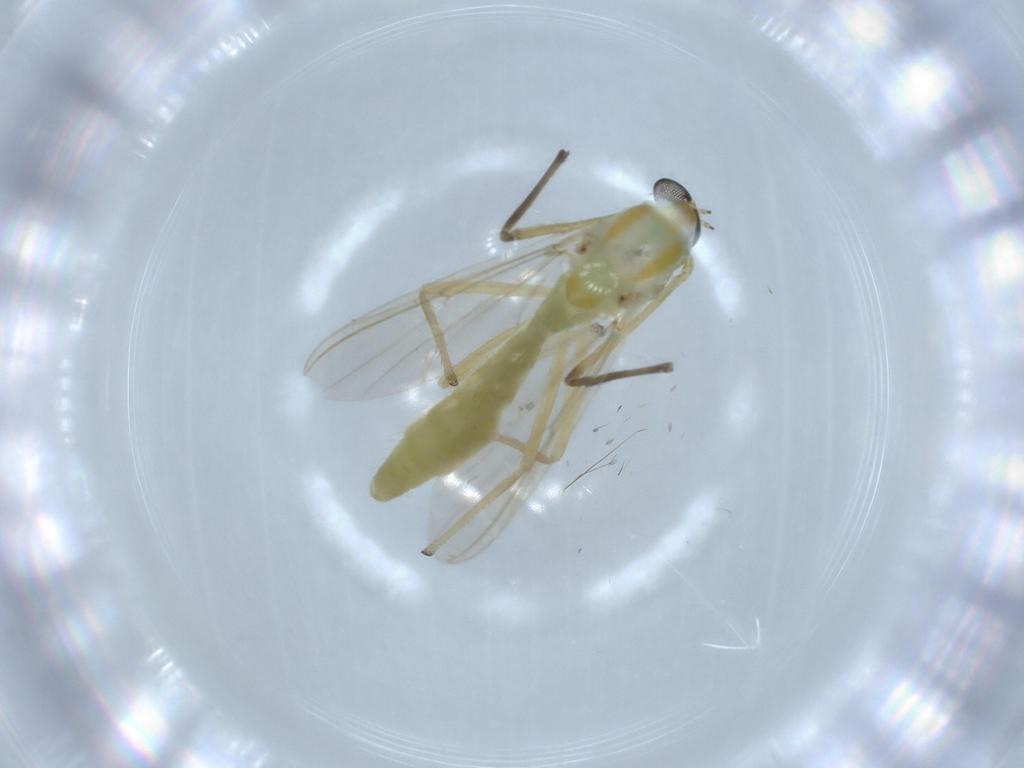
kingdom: Animalia
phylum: Arthropoda
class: Insecta
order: Diptera
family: Chironomidae
